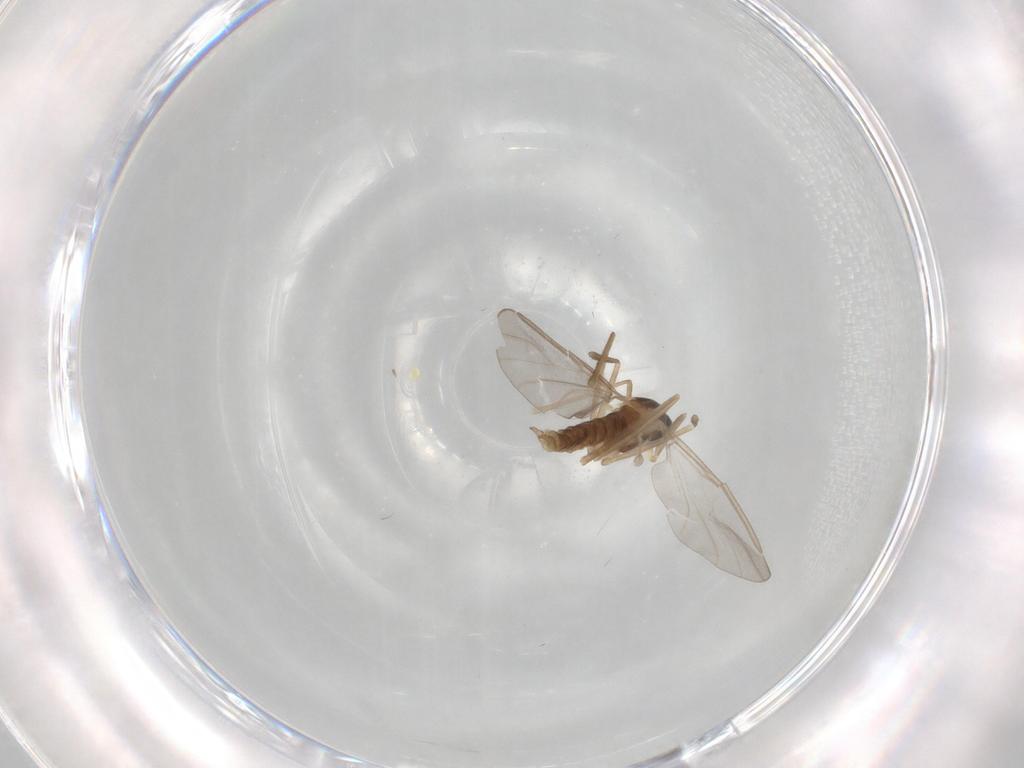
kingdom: Animalia
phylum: Arthropoda
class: Insecta
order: Diptera
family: Cecidomyiidae
